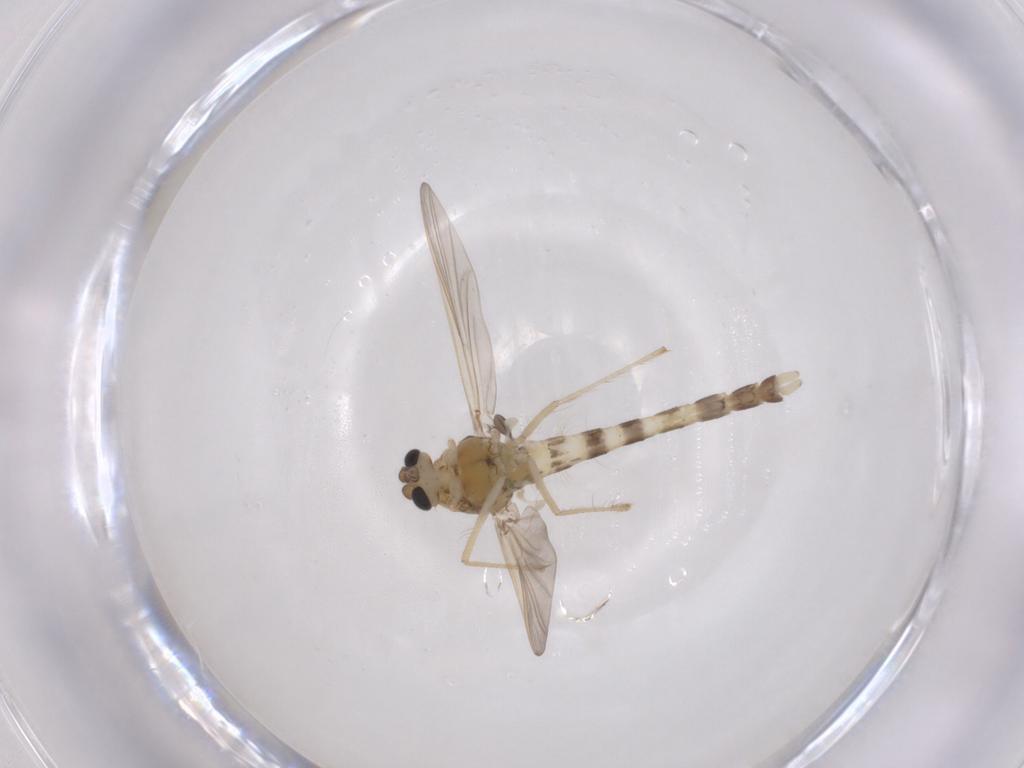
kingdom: Animalia
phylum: Arthropoda
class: Insecta
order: Diptera
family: Chironomidae
